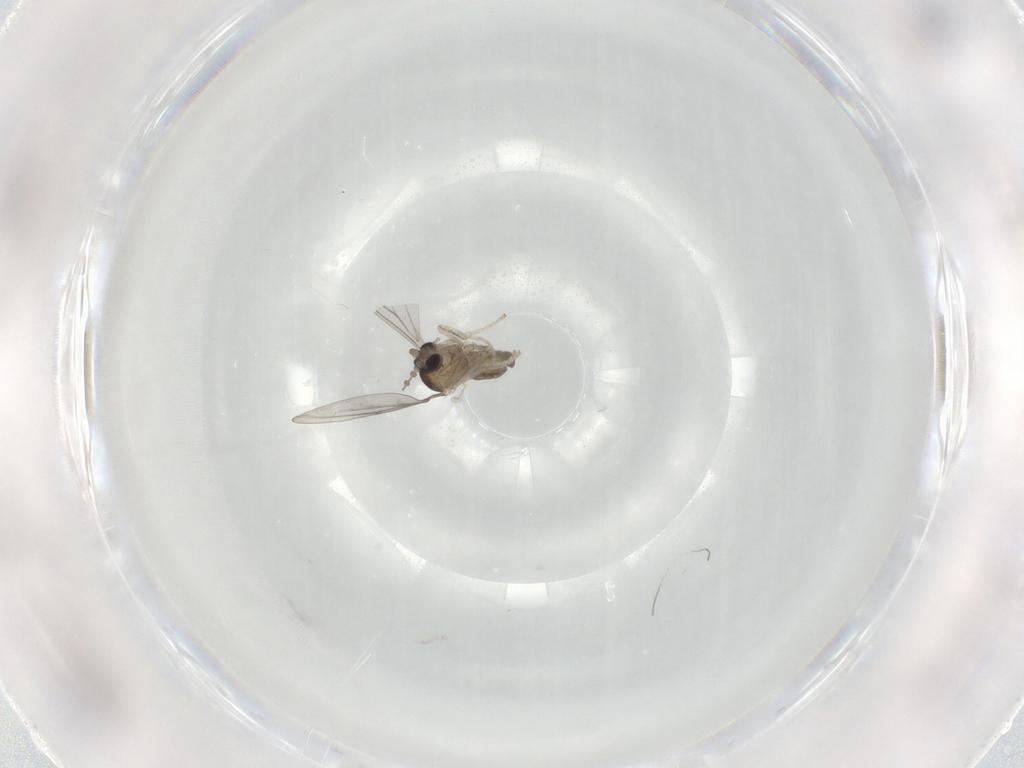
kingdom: Animalia
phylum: Arthropoda
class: Insecta
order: Diptera
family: Cecidomyiidae
